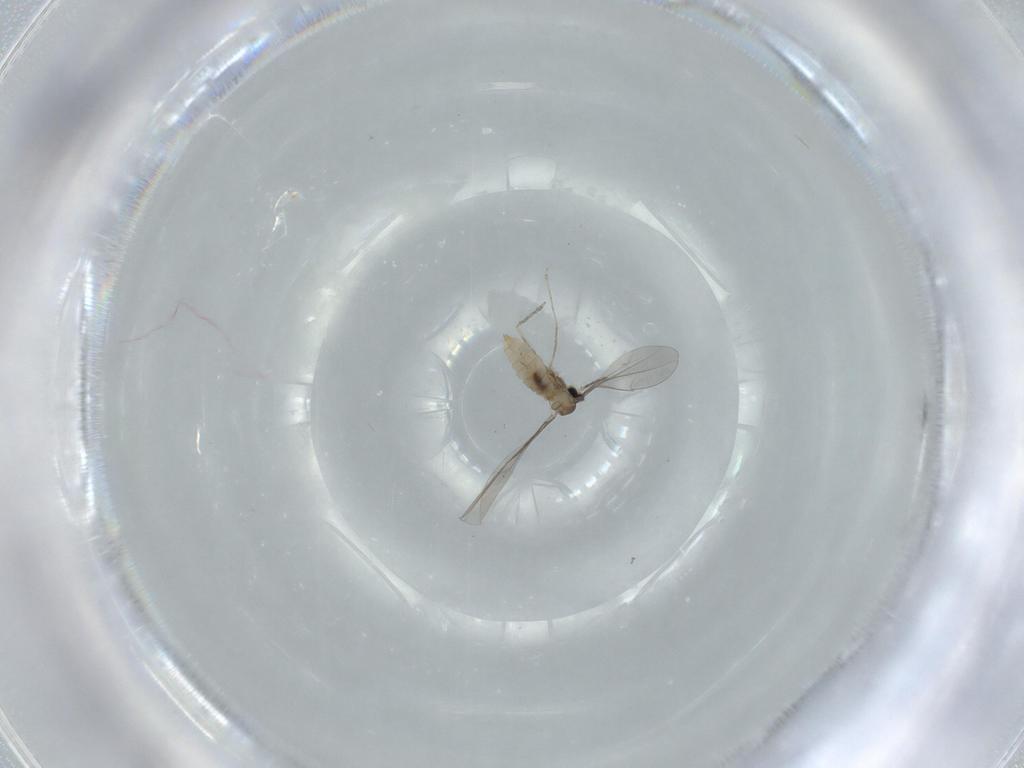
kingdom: Animalia
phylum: Arthropoda
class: Insecta
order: Diptera
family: Cecidomyiidae
